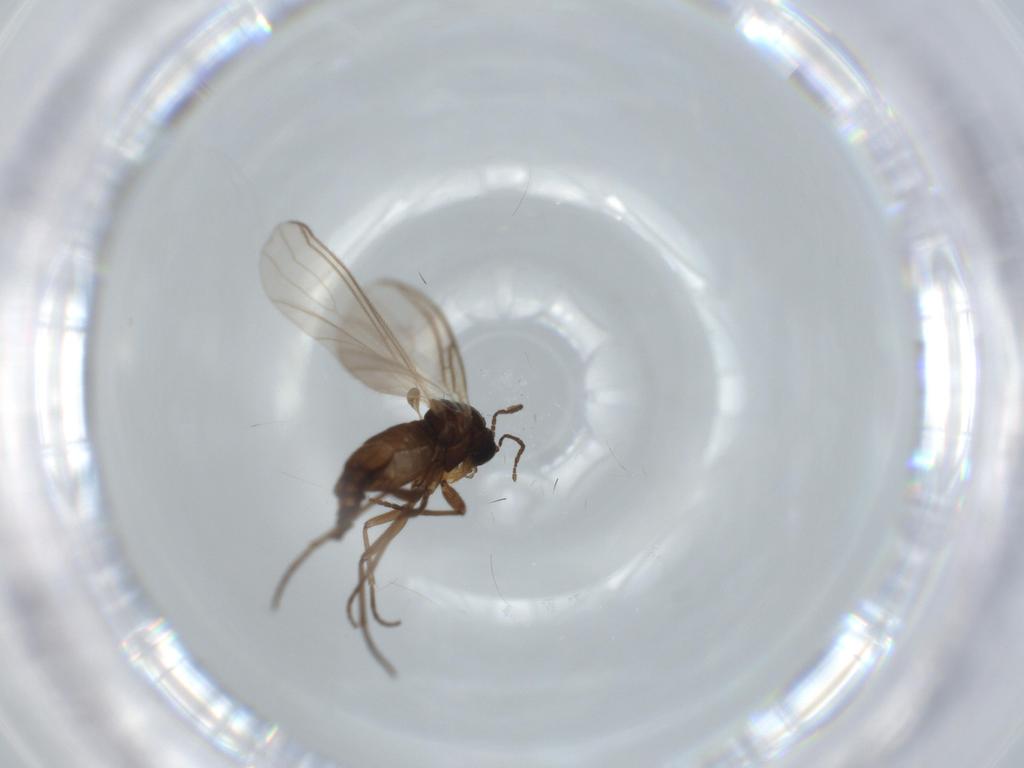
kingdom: Animalia
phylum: Arthropoda
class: Insecta
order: Diptera
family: Sciaridae
